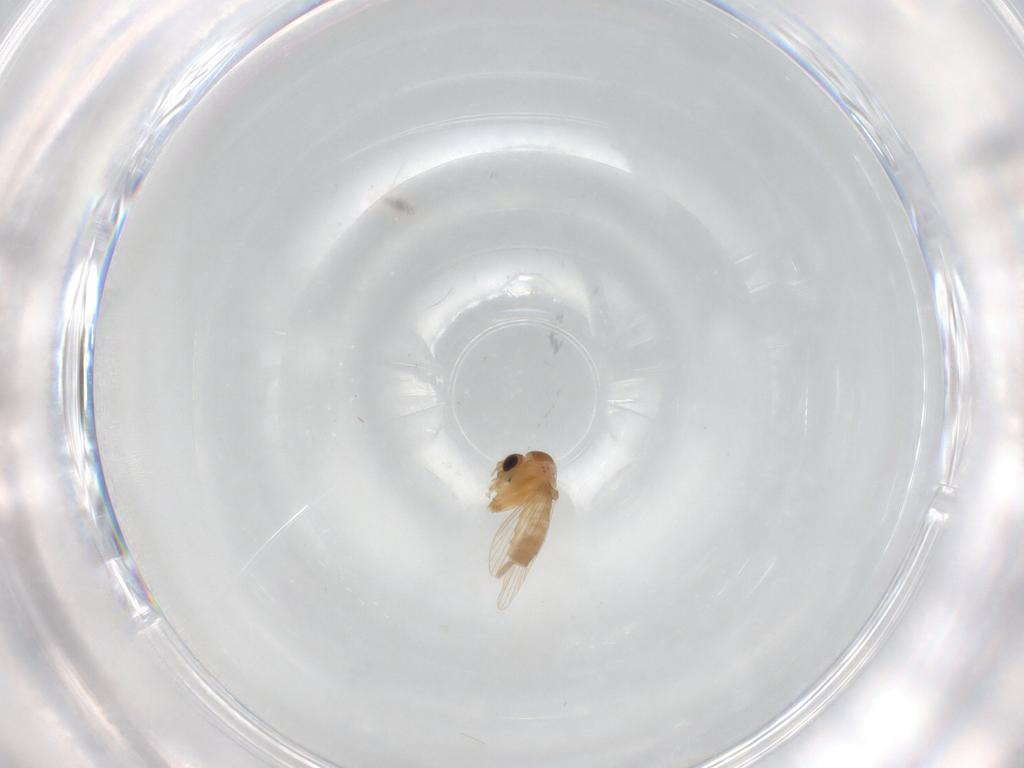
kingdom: Animalia
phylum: Arthropoda
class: Insecta
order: Diptera
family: Psychodidae
